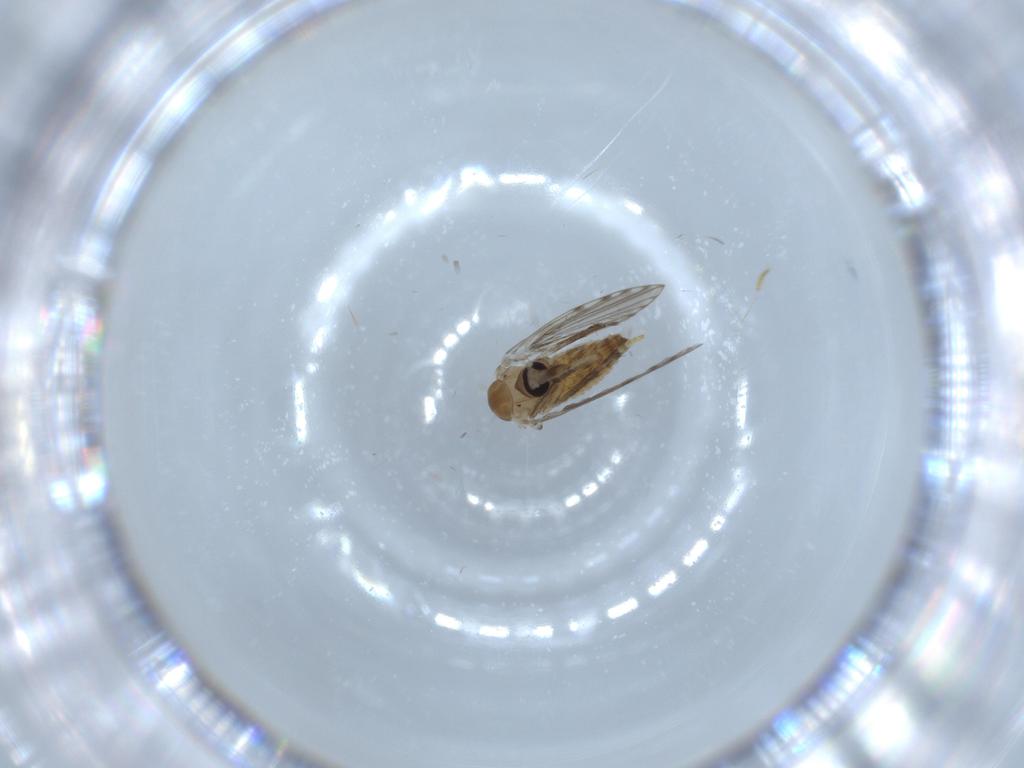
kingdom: Animalia
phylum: Arthropoda
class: Insecta
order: Diptera
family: Psychodidae
